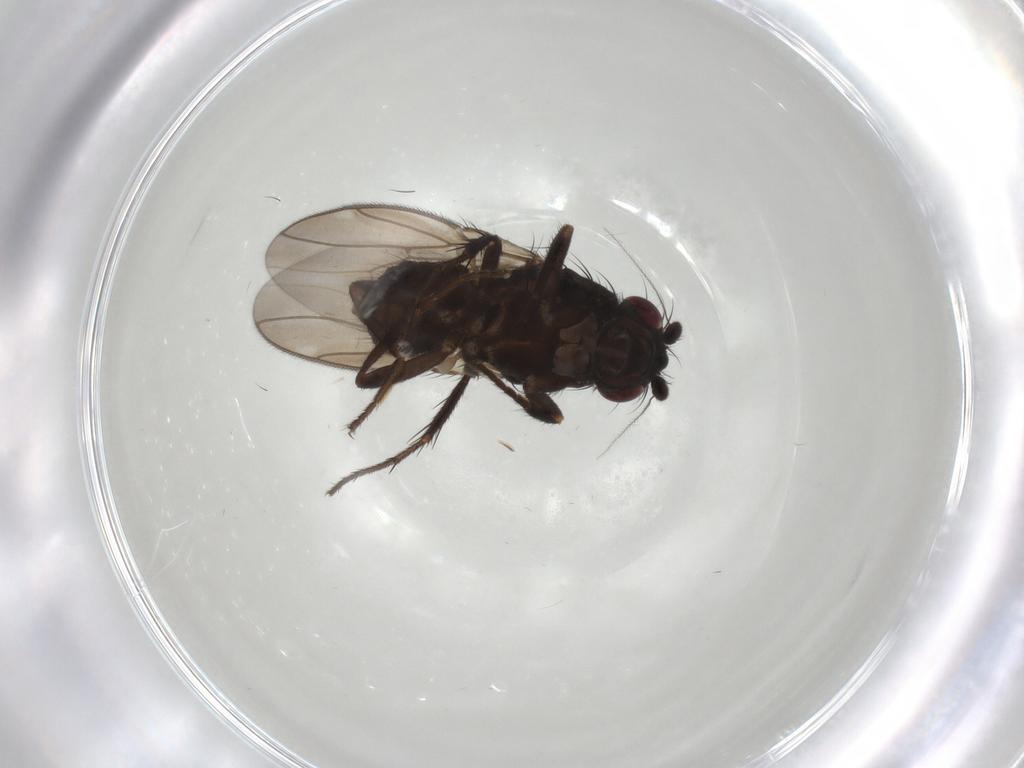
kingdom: Animalia
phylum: Arthropoda
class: Insecta
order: Diptera
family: Sphaeroceridae
